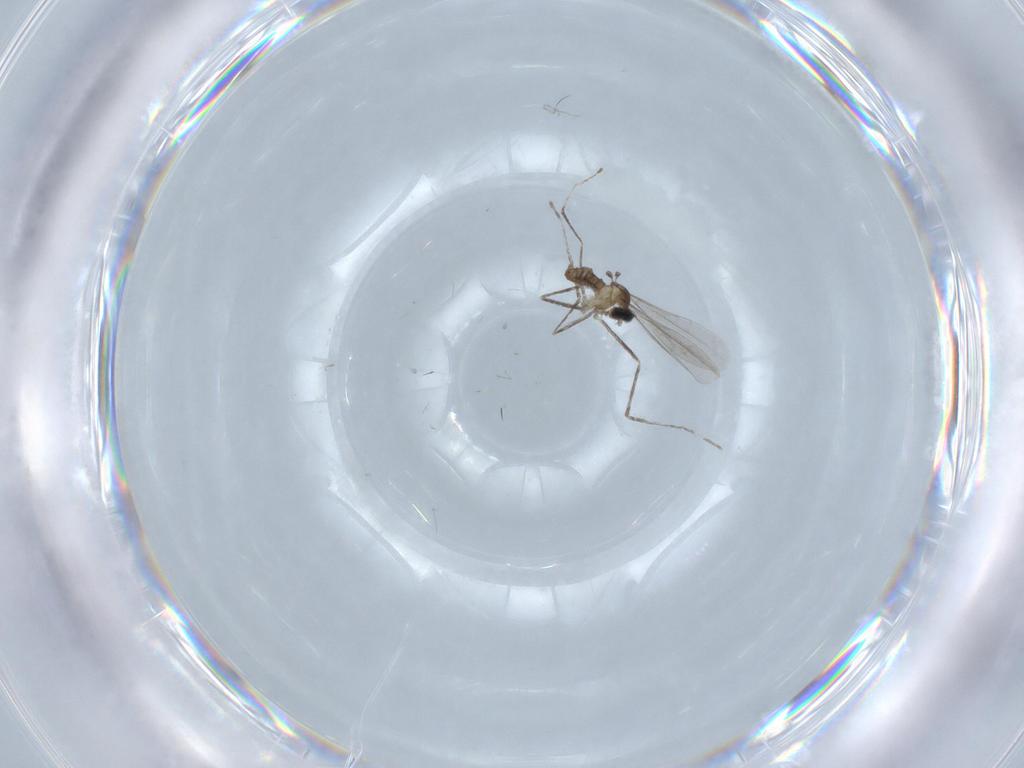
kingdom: Animalia
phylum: Arthropoda
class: Insecta
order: Diptera
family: Cecidomyiidae
